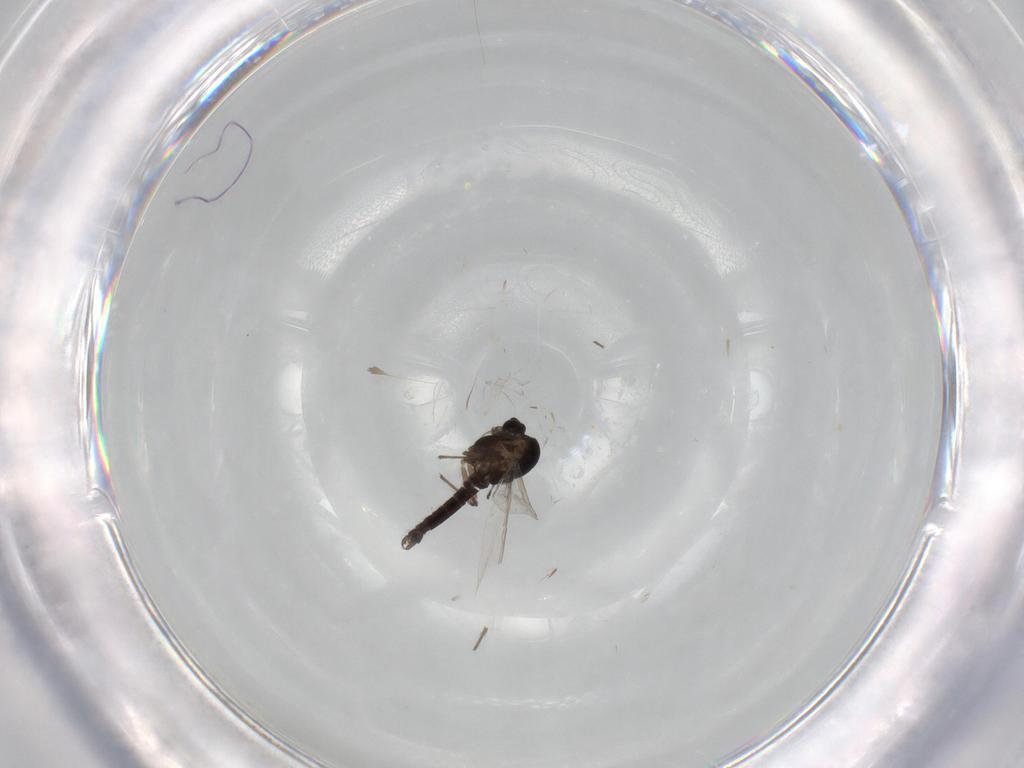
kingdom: Animalia
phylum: Arthropoda
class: Insecta
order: Diptera
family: Chironomidae
